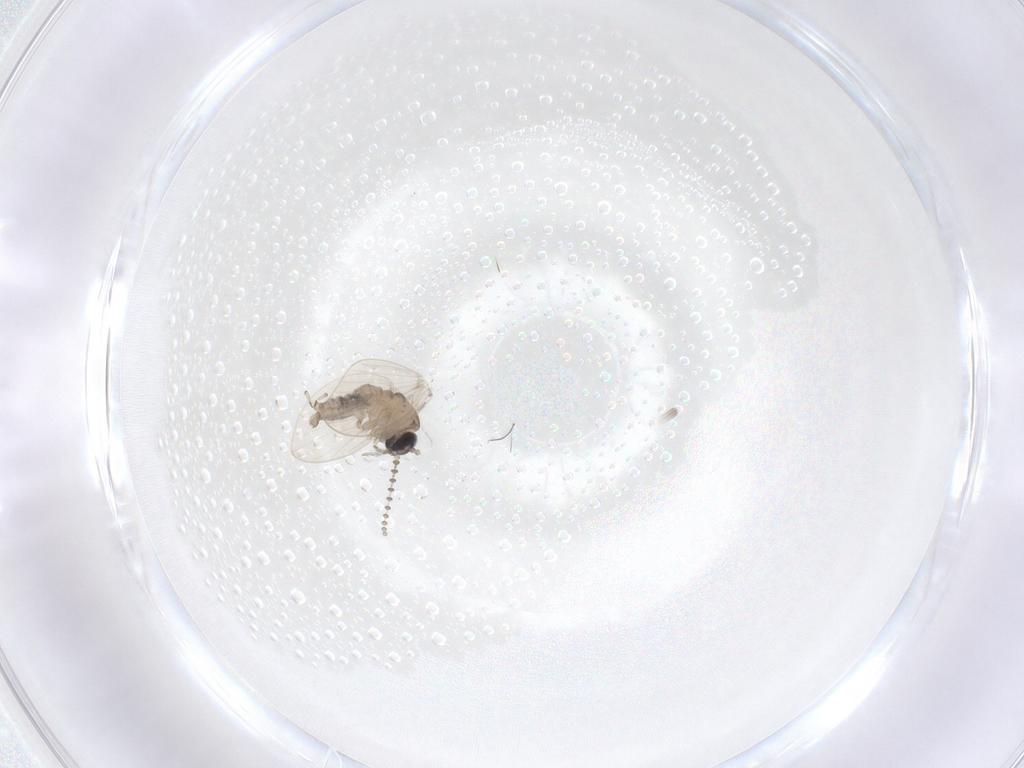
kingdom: Animalia
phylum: Arthropoda
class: Insecta
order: Diptera
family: Psychodidae
